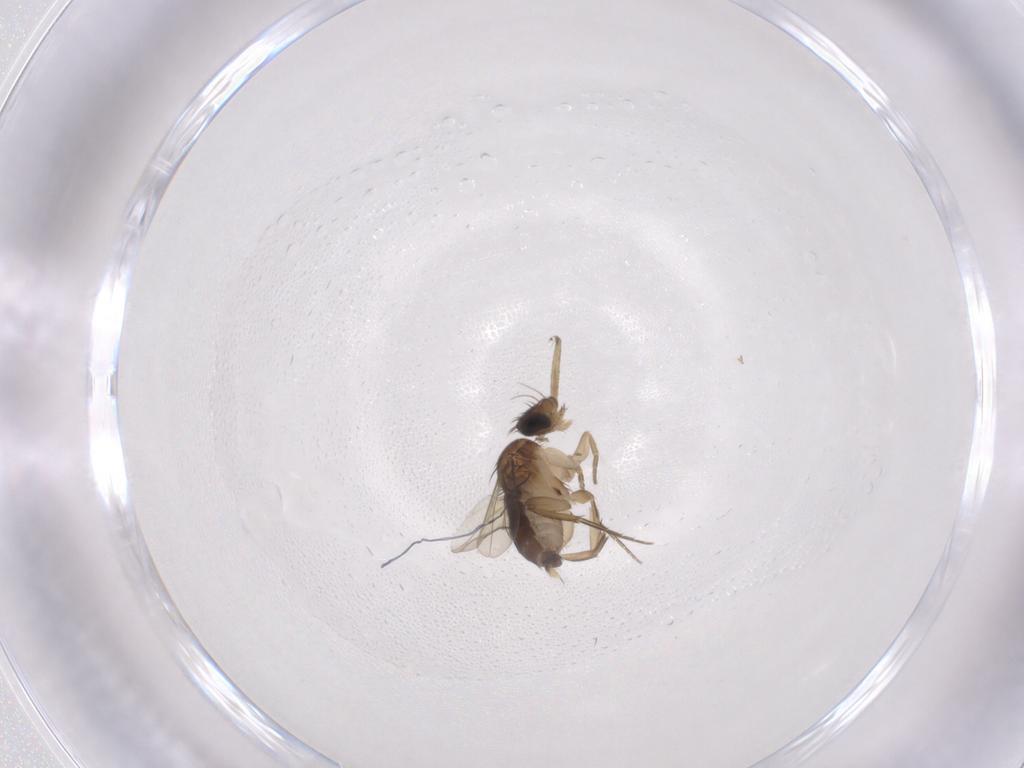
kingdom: Animalia
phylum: Arthropoda
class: Insecta
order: Diptera
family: Phoridae
